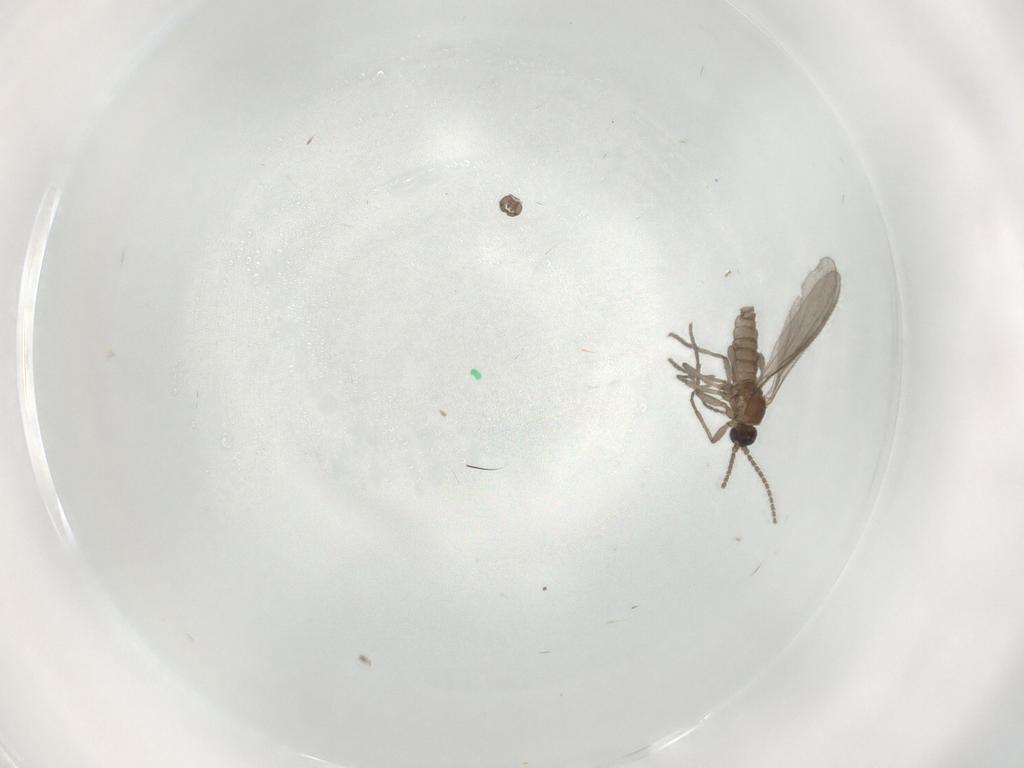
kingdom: Animalia
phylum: Arthropoda
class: Insecta
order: Diptera
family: Sciaridae
